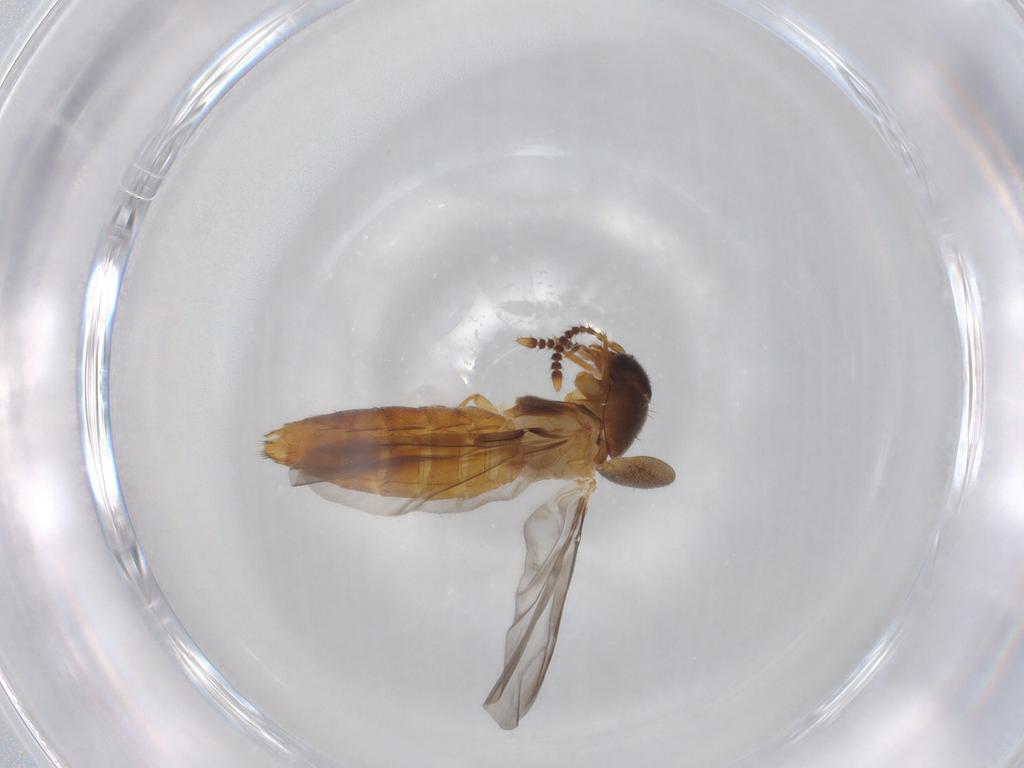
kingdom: Animalia
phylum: Arthropoda
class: Insecta
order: Coleoptera
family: Staphylinidae
